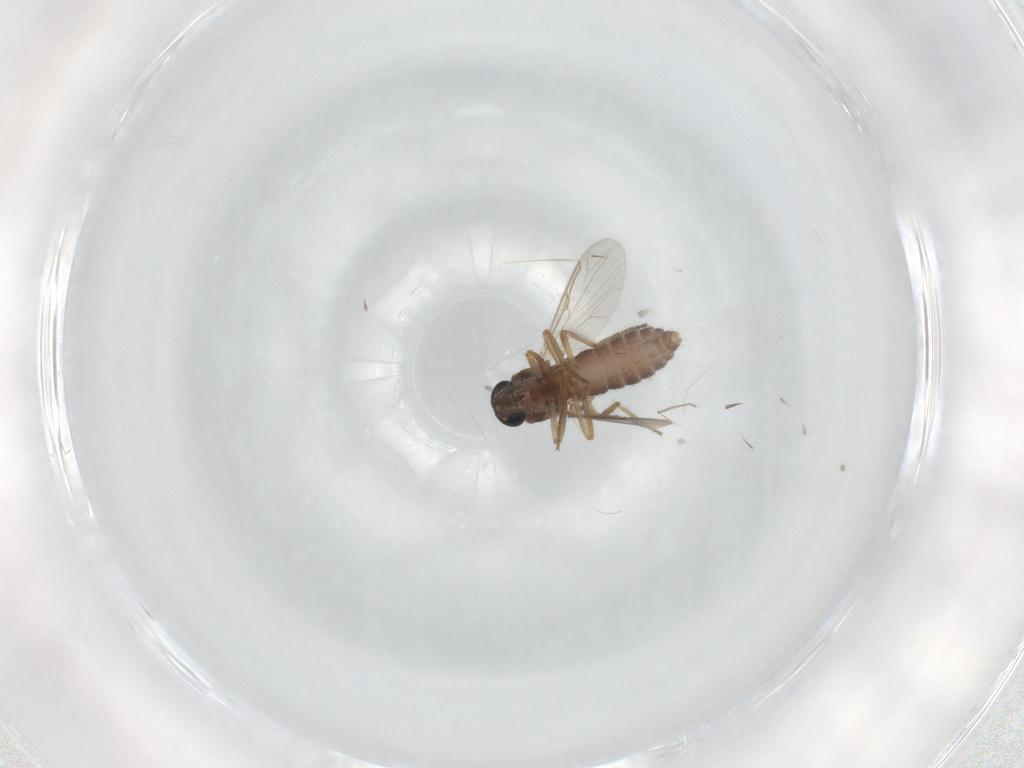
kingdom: Animalia
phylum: Arthropoda
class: Insecta
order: Diptera
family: Ceratopogonidae
